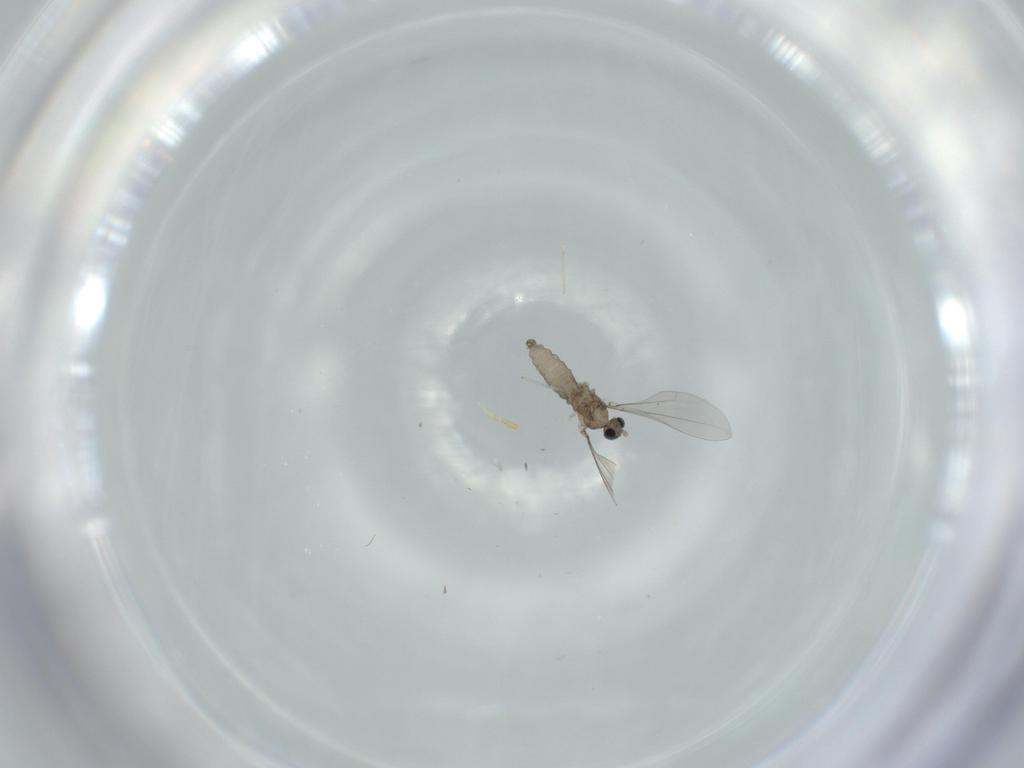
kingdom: Animalia
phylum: Arthropoda
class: Insecta
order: Diptera
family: Cecidomyiidae
